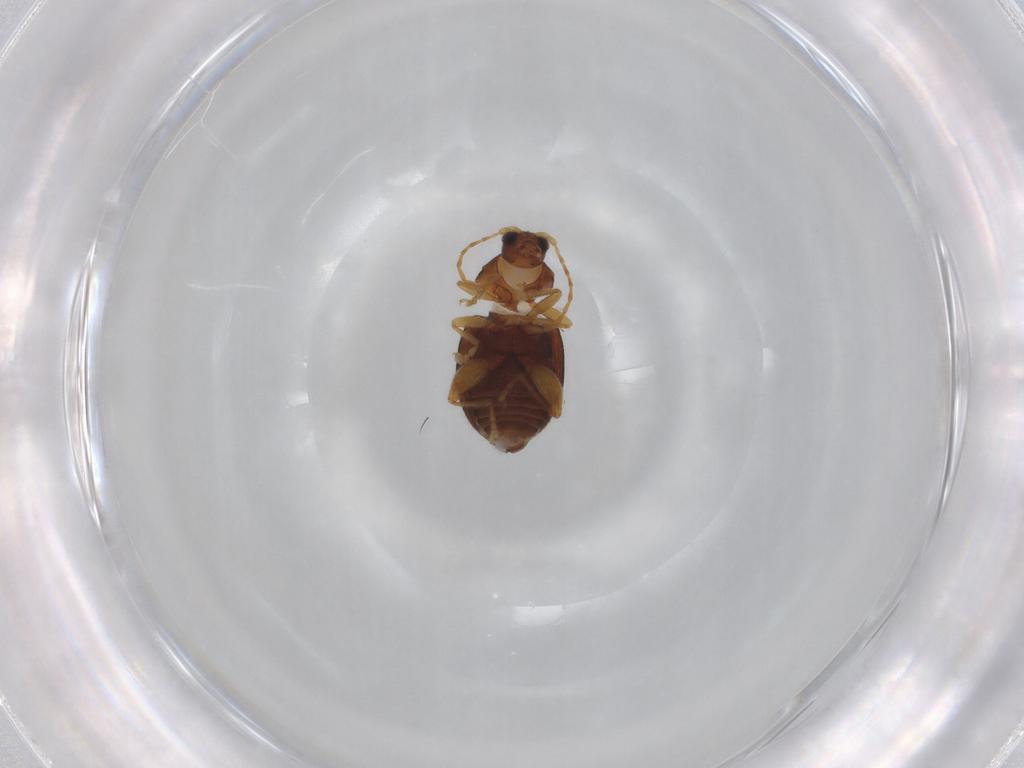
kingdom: Animalia
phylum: Arthropoda
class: Insecta
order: Coleoptera
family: Chrysomelidae
